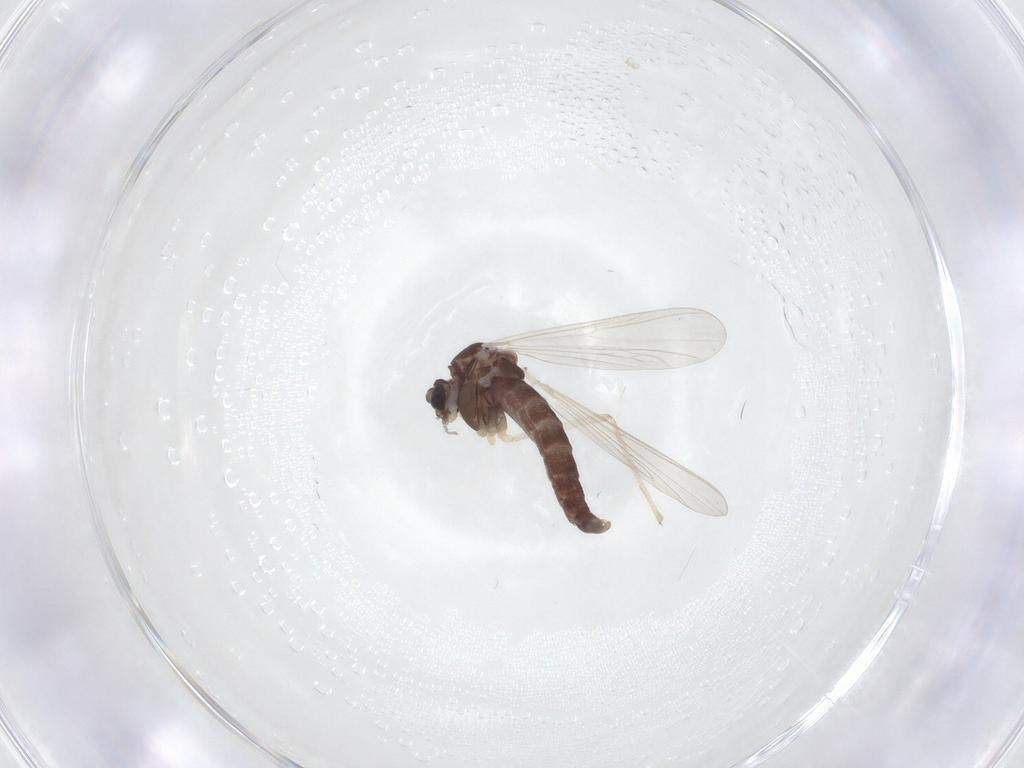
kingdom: Animalia
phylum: Arthropoda
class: Insecta
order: Diptera
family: Chironomidae
